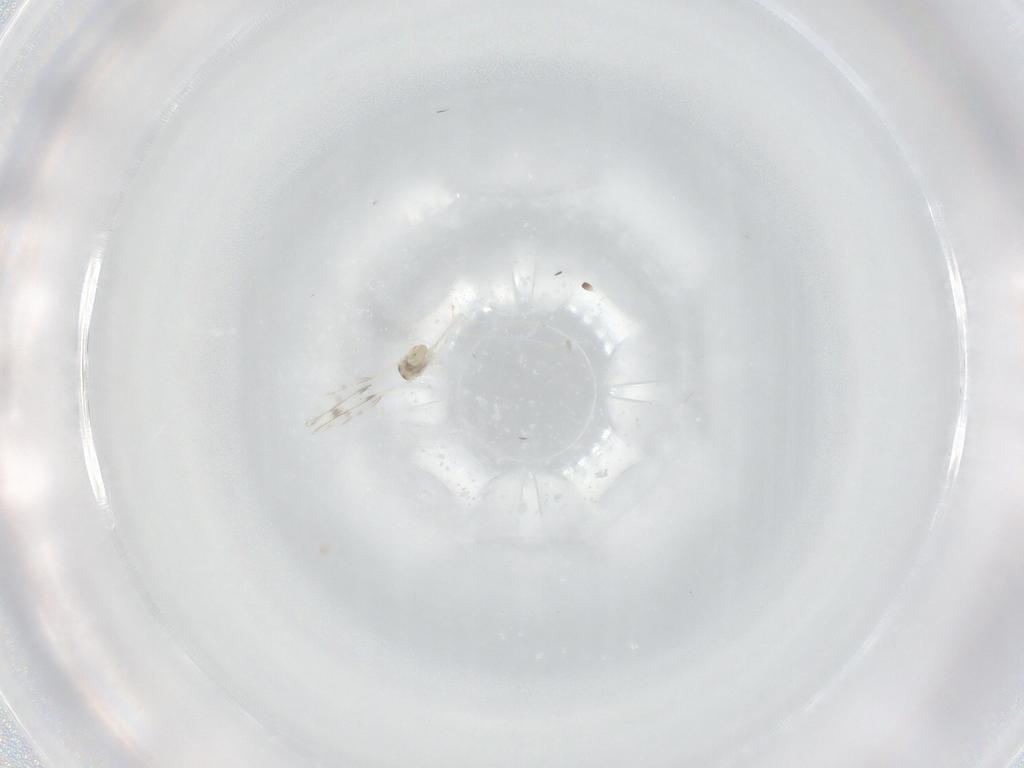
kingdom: Animalia
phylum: Arthropoda
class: Insecta
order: Diptera
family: Cecidomyiidae
